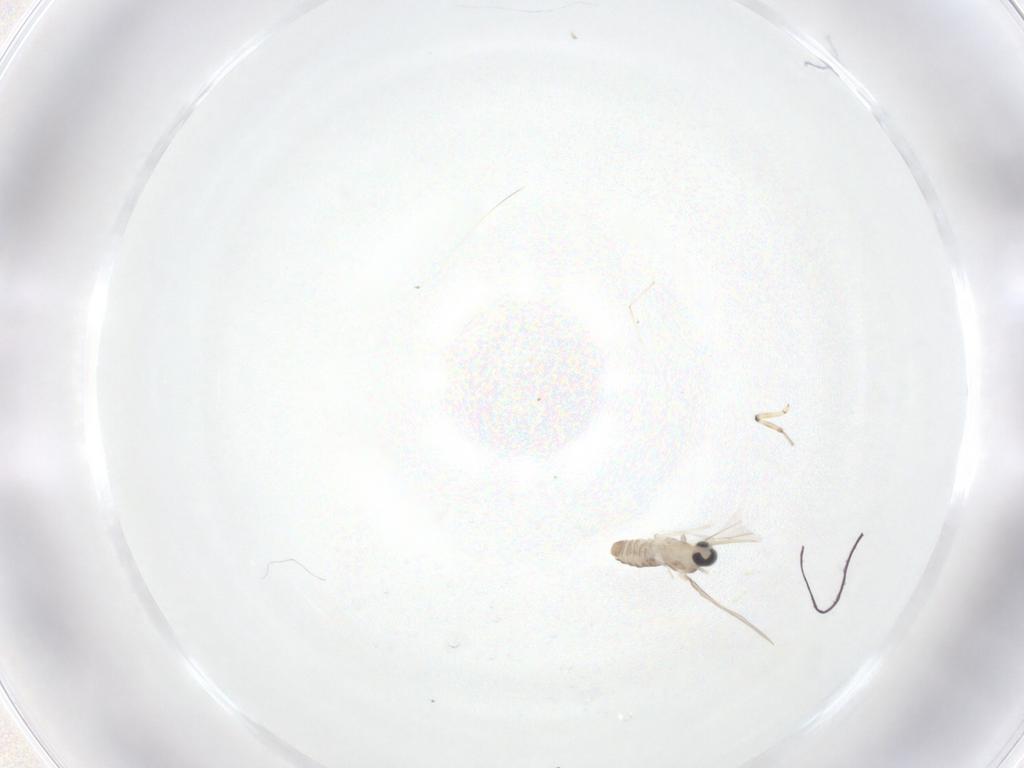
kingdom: Animalia
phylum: Arthropoda
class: Insecta
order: Diptera
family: Cecidomyiidae
